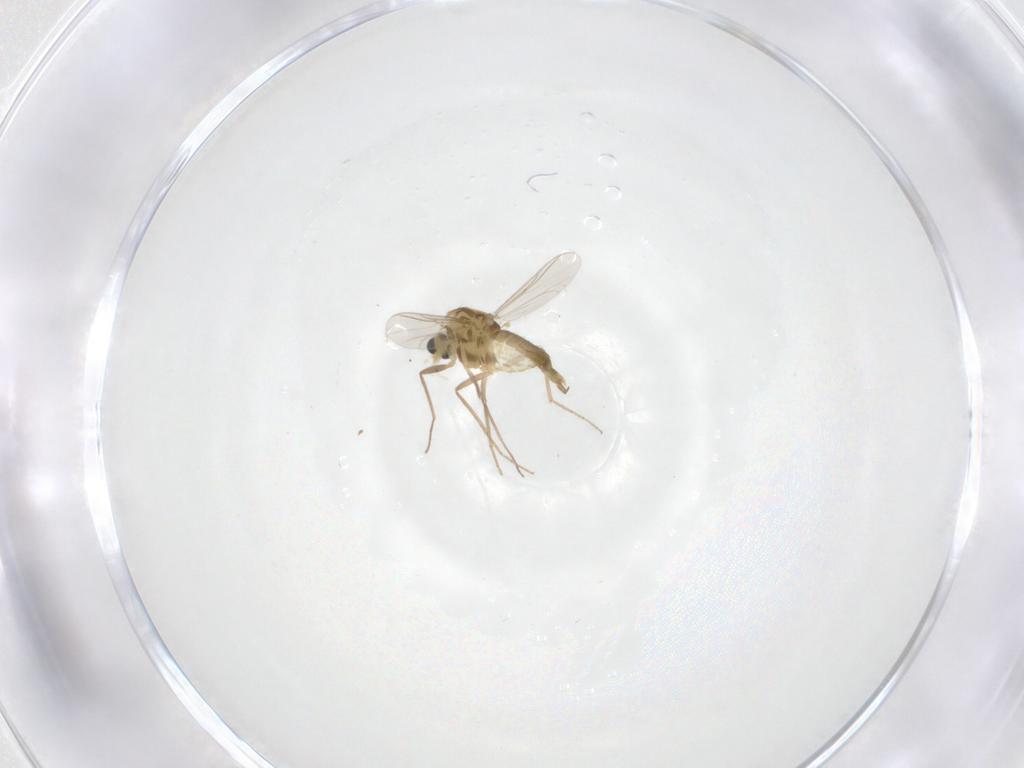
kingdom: Animalia
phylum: Arthropoda
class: Insecta
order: Diptera
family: Chironomidae
